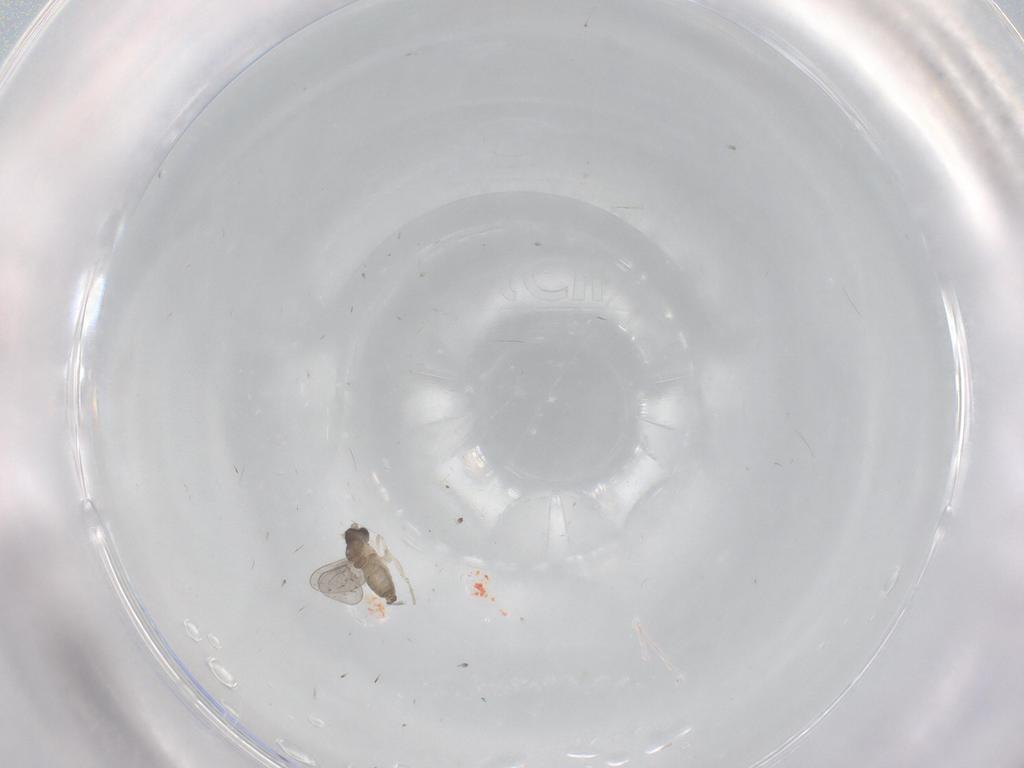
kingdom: Animalia
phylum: Arthropoda
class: Insecta
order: Diptera
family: Cecidomyiidae
